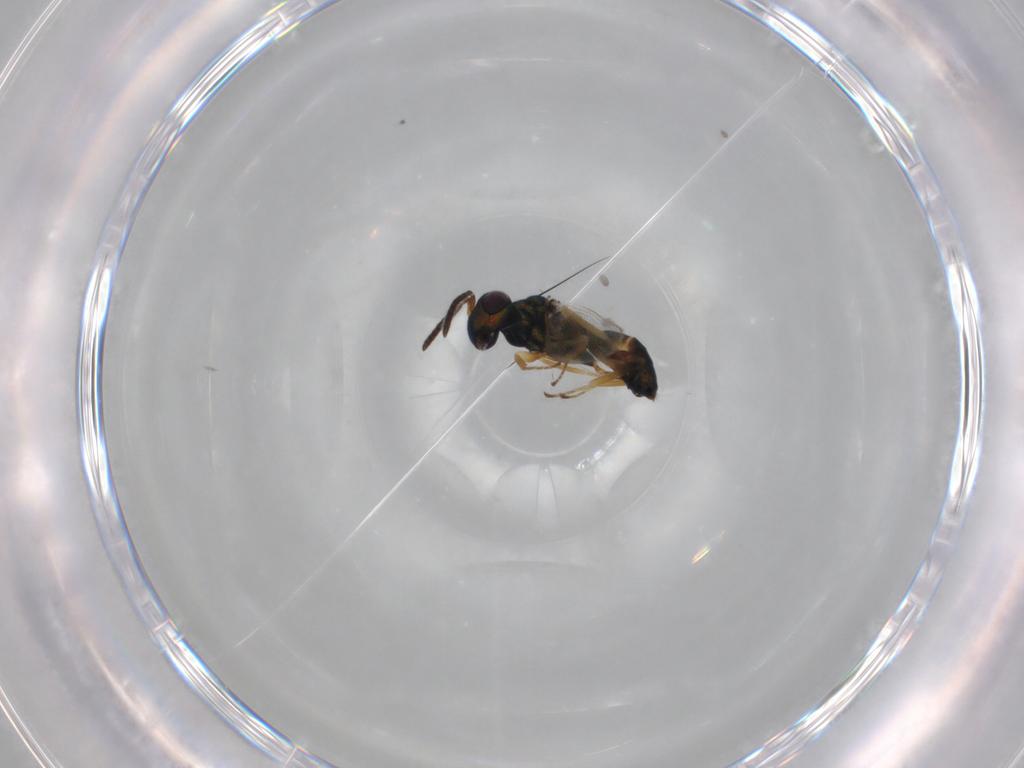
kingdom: Animalia
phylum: Arthropoda
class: Insecta
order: Hymenoptera
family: Pteromalidae
